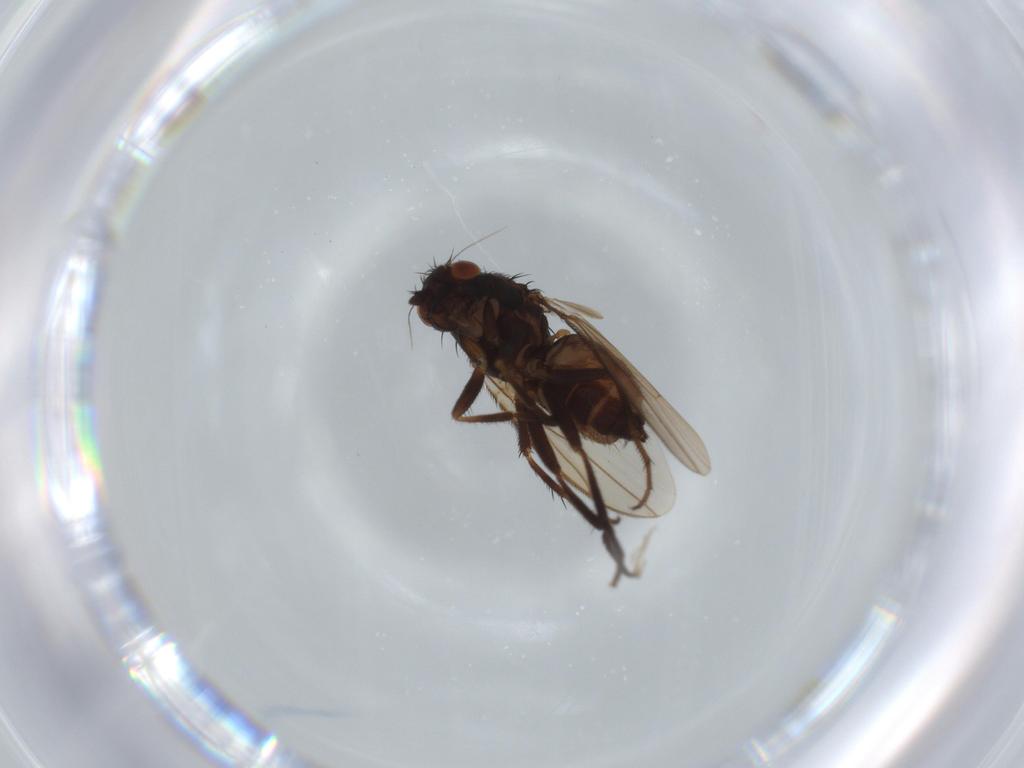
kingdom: Animalia
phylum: Arthropoda
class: Insecta
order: Diptera
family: Sphaeroceridae
